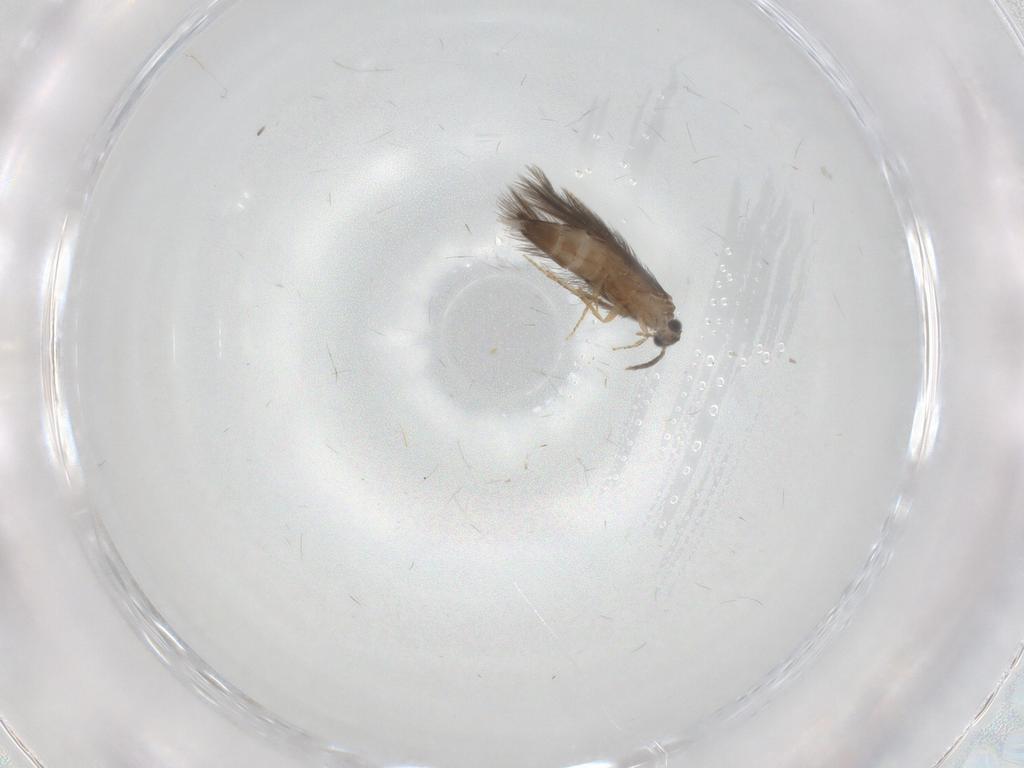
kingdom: Animalia
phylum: Arthropoda
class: Insecta
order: Trichoptera
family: Hydroptilidae
